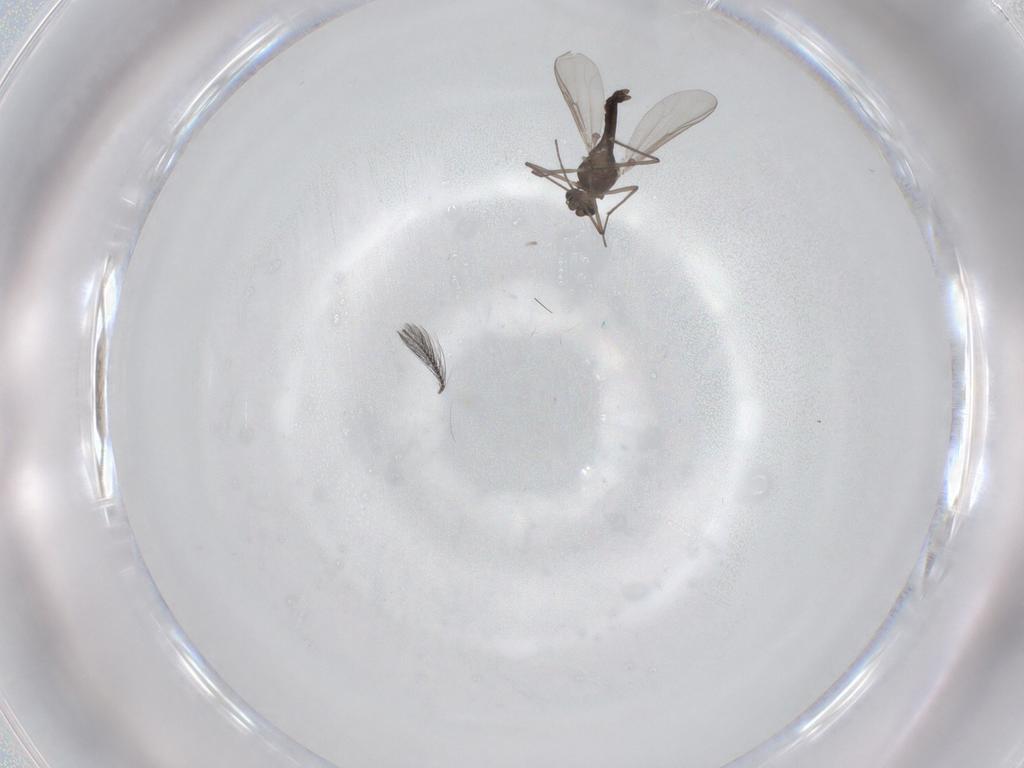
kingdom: Animalia
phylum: Arthropoda
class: Insecta
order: Diptera
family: Chironomidae
